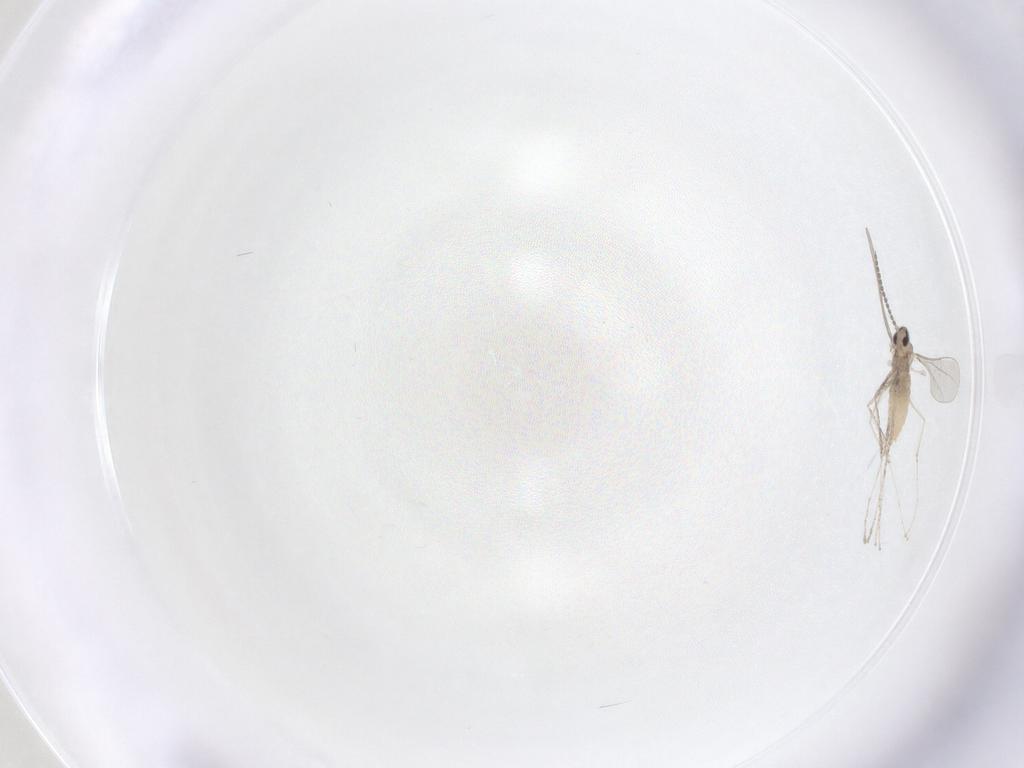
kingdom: Animalia
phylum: Arthropoda
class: Insecta
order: Diptera
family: Cecidomyiidae
